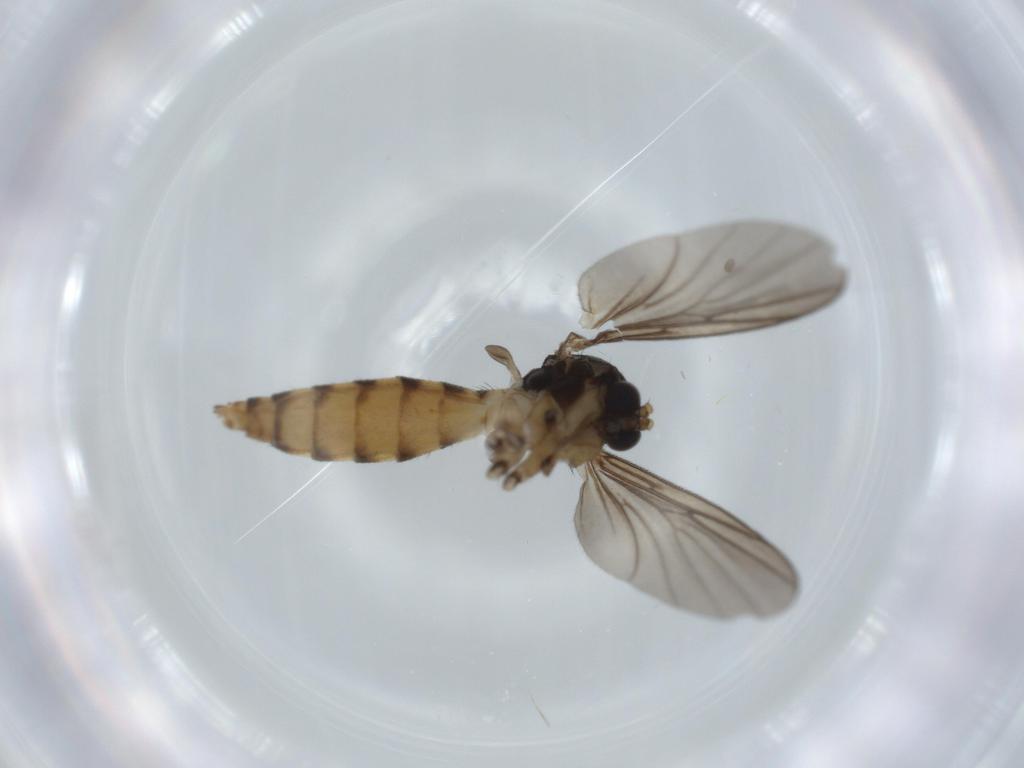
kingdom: Animalia
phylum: Arthropoda
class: Insecta
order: Diptera
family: Mycetophilidae
